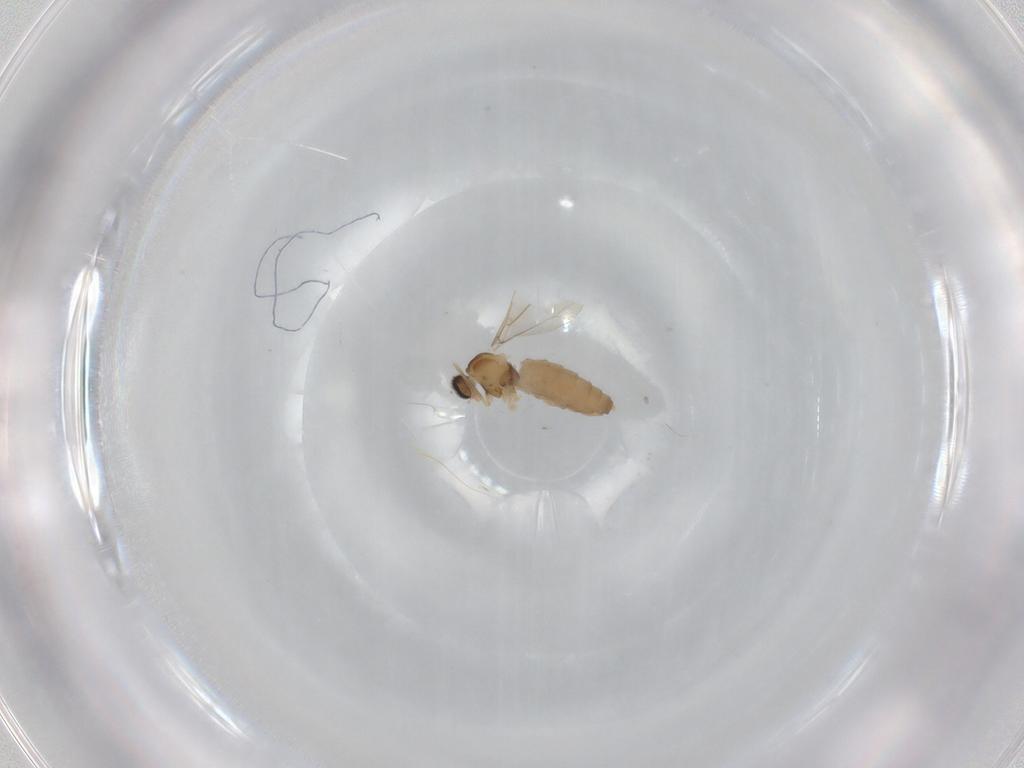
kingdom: Animalia
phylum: Arthropoda
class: Insecta
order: Diptera
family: Cecidomyiidae
